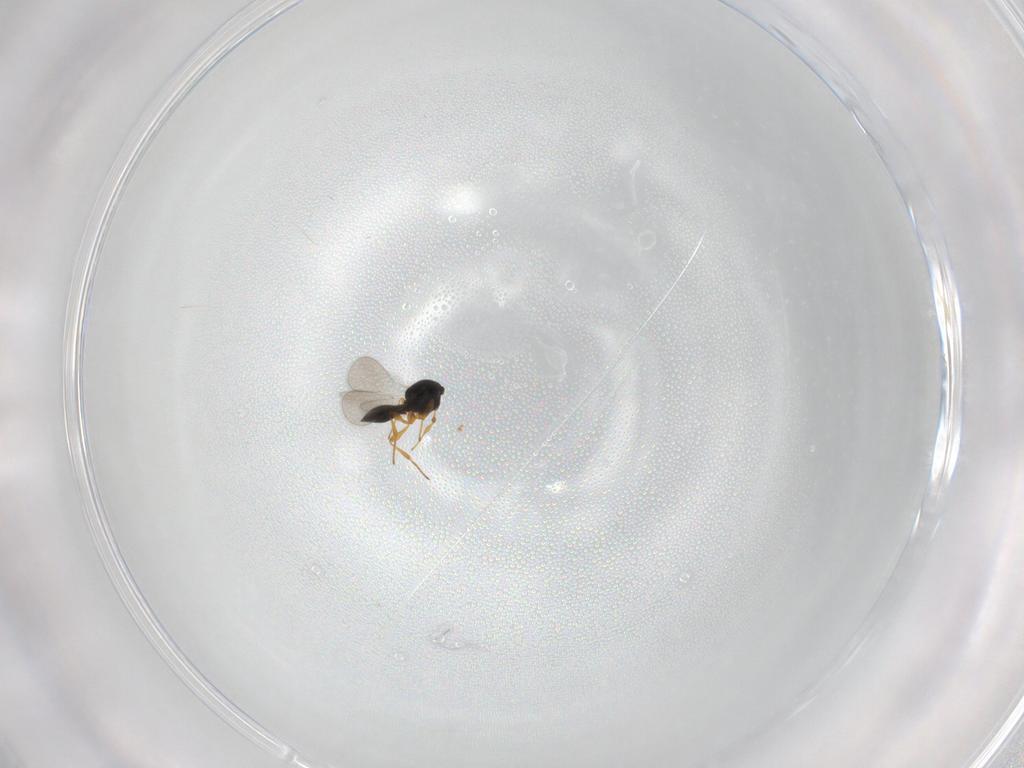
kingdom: Animalia
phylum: Arthropoda
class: Insecta
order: Hymenoptera
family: Platygastridae
